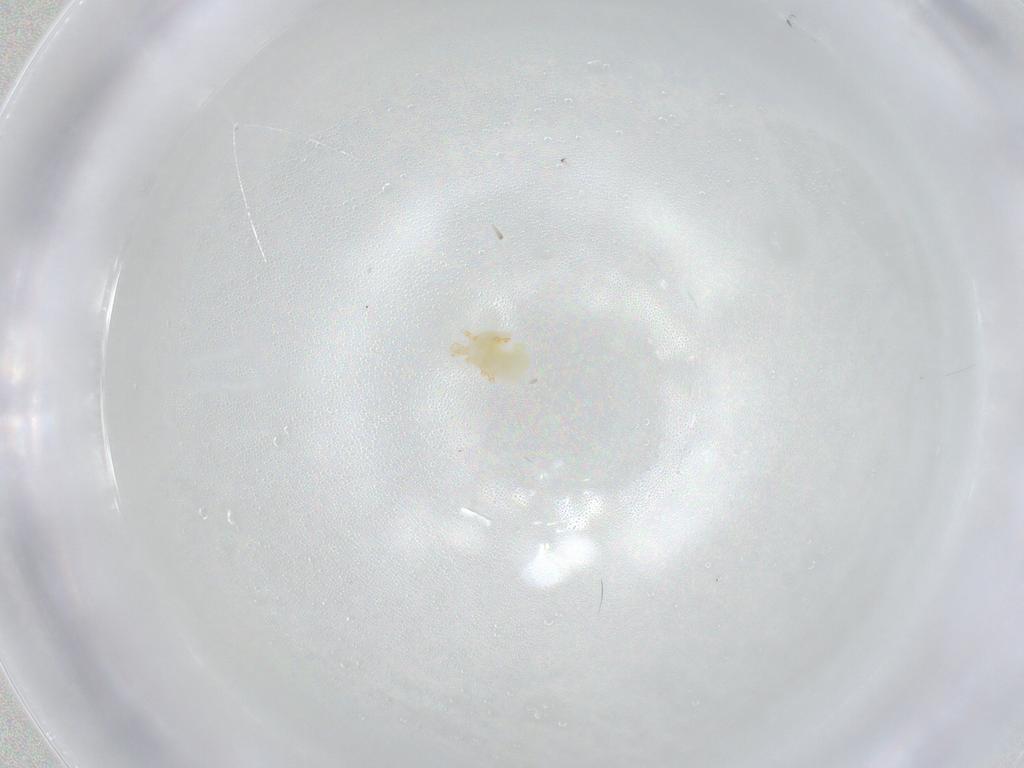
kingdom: Animalia
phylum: Arthropoda
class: Arachnida
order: Trombidiformes
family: Eupodidae
